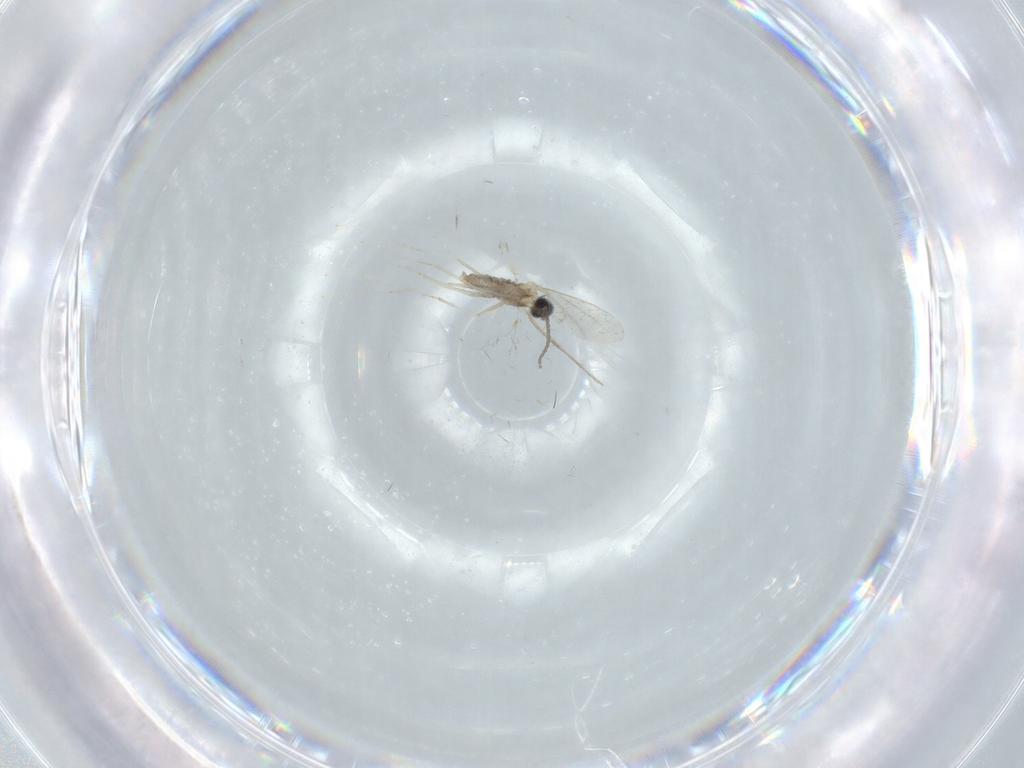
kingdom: Animalia
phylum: Arthropoda
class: Insecta
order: Diptera
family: Cecidomyiidae
